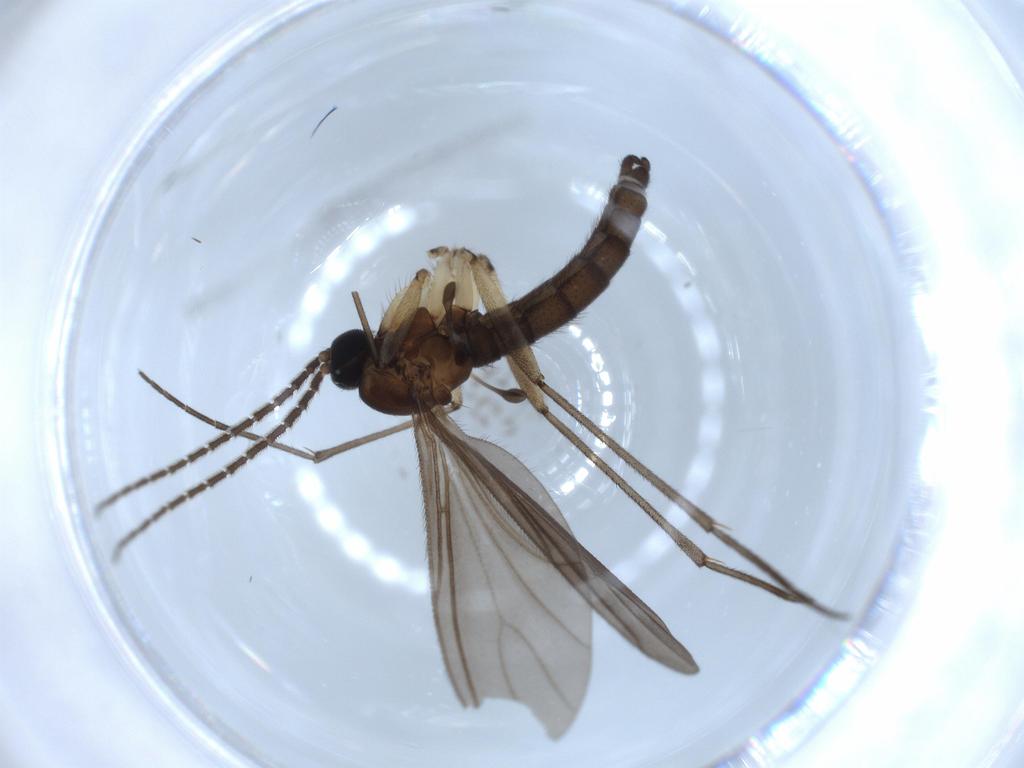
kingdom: Animalia
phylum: Arthropoda
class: Insecta
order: Diptera
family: Sciaridae
